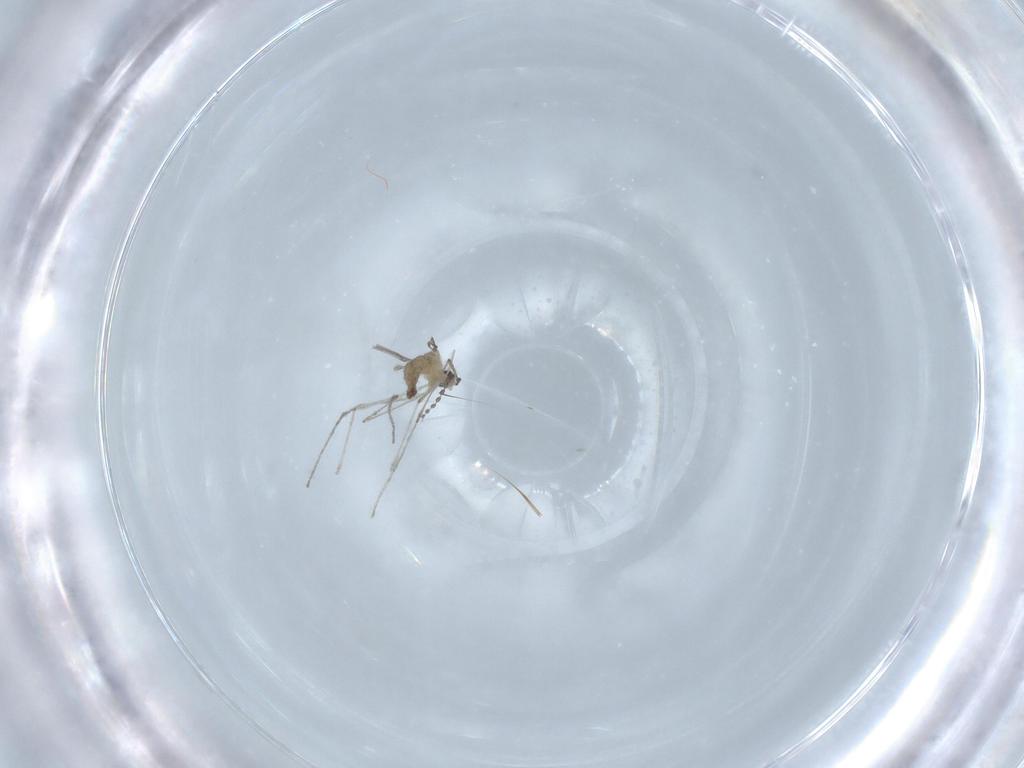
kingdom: Animalia
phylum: Arthropoda
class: Insecta
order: Diptera
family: Cecidomyiidae
